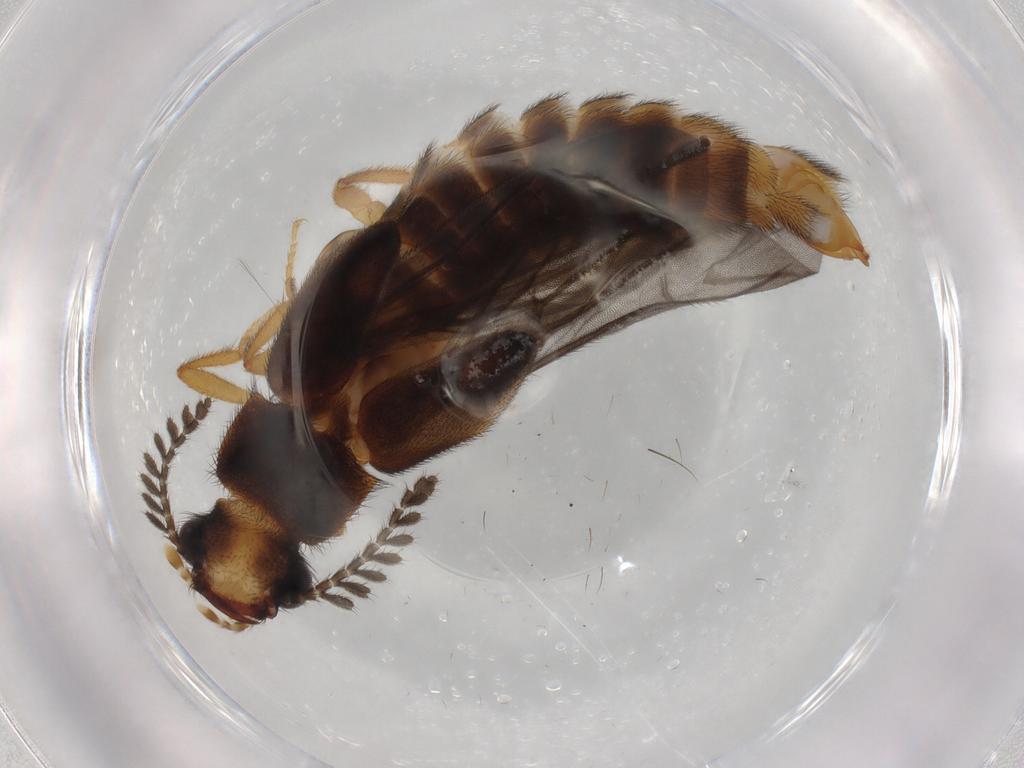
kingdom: Animalia
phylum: Arthropoda
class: Insecta
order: Coleoptera
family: Phengodidae
